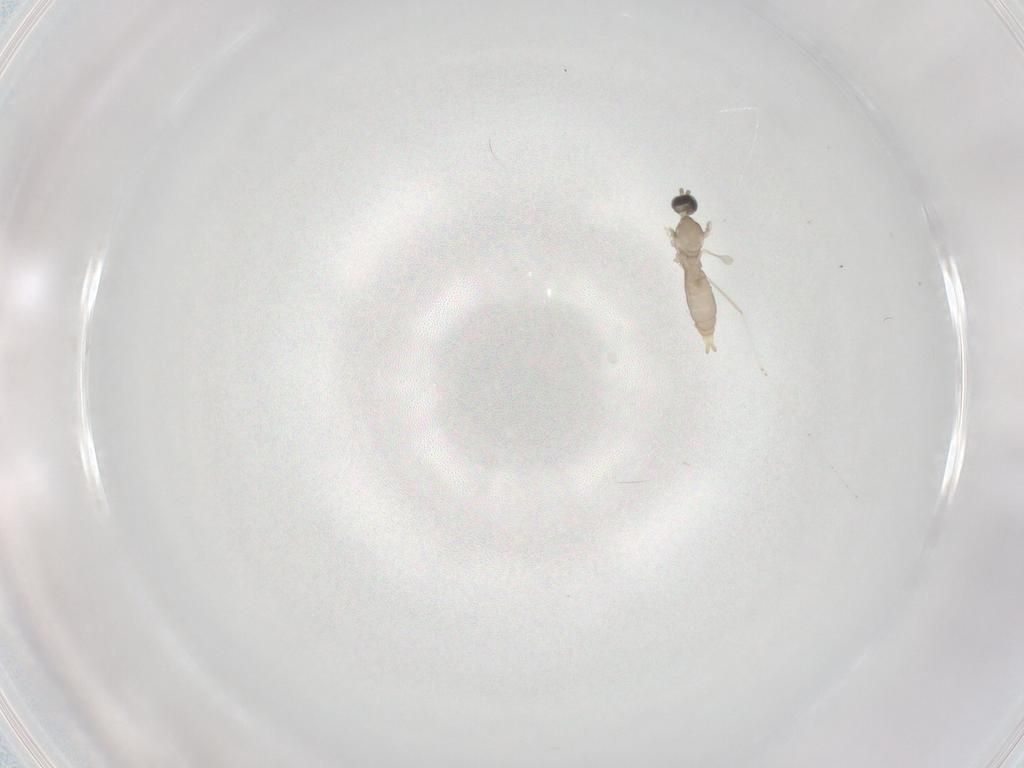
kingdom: Animalia
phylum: Arthropoda
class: Insecta
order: Diptera
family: Cecidomyiidae
